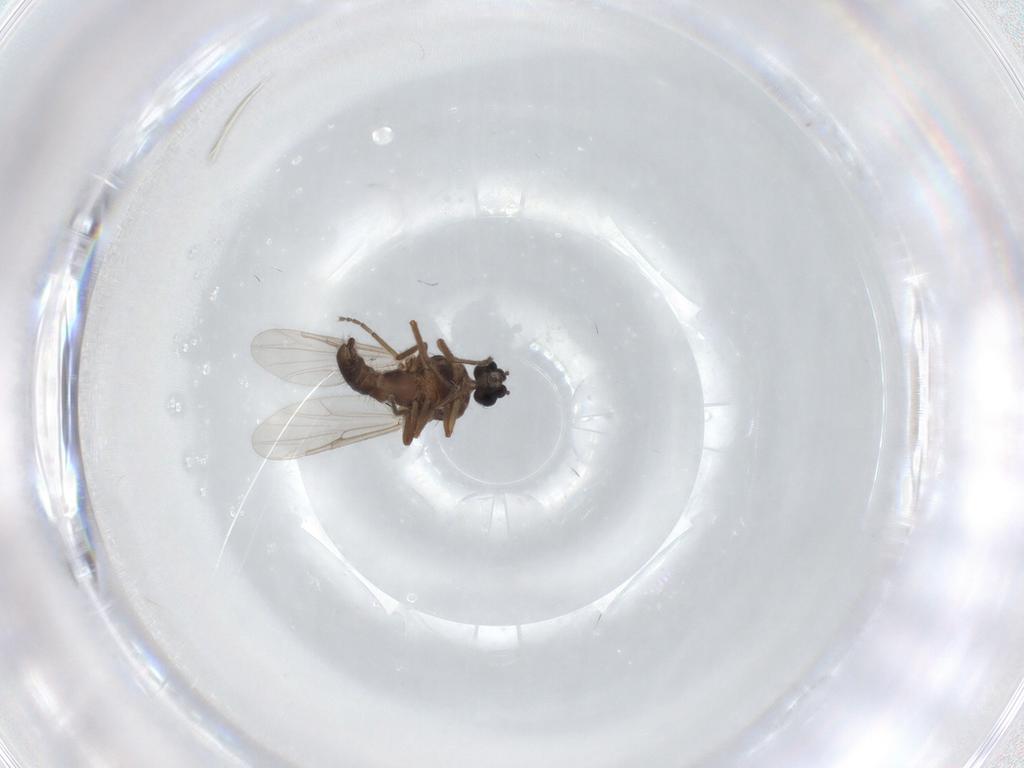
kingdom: Animalia
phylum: Arthropoda
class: Insecta
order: Diptera
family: Ceratopogonidae
